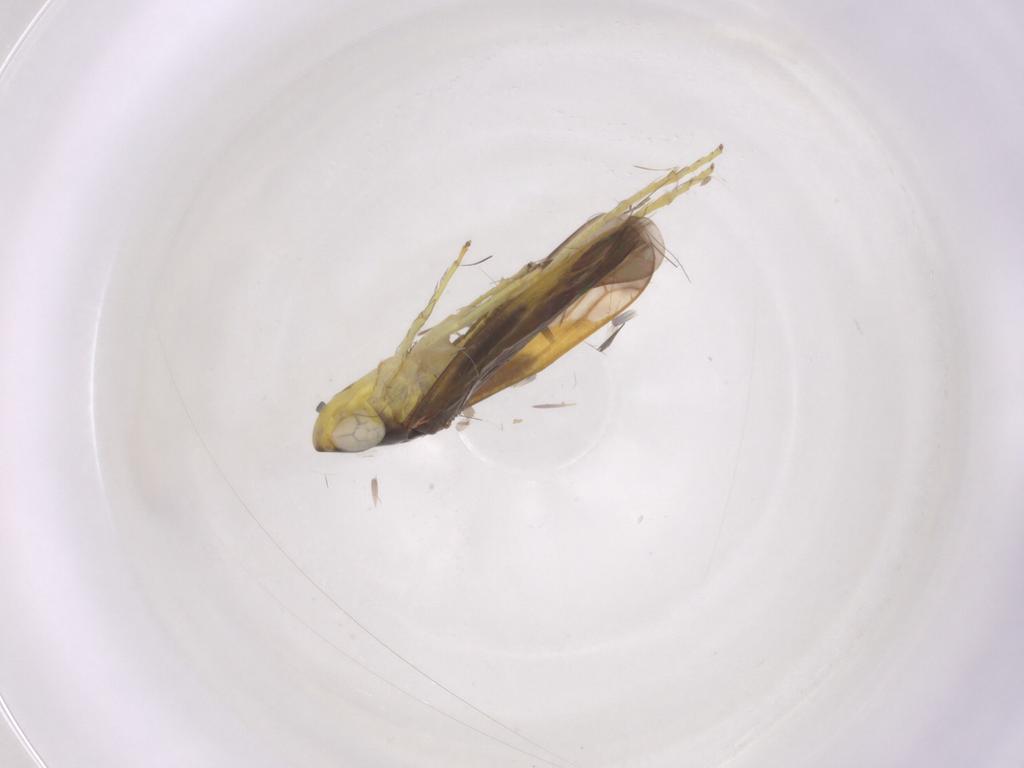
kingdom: Animalia
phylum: Arthropoda
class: Insecta
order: Hemiptera
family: Cicadellidae
